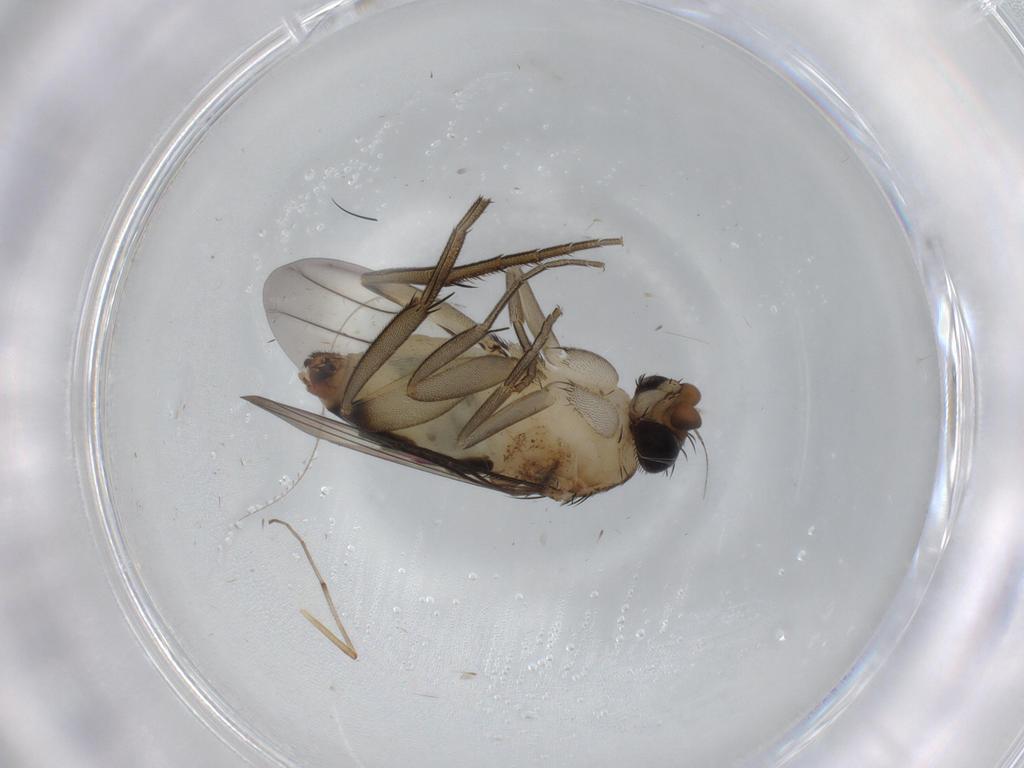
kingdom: Animalia
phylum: Arthropoda
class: Insecta
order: Diptera
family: Phoridae
